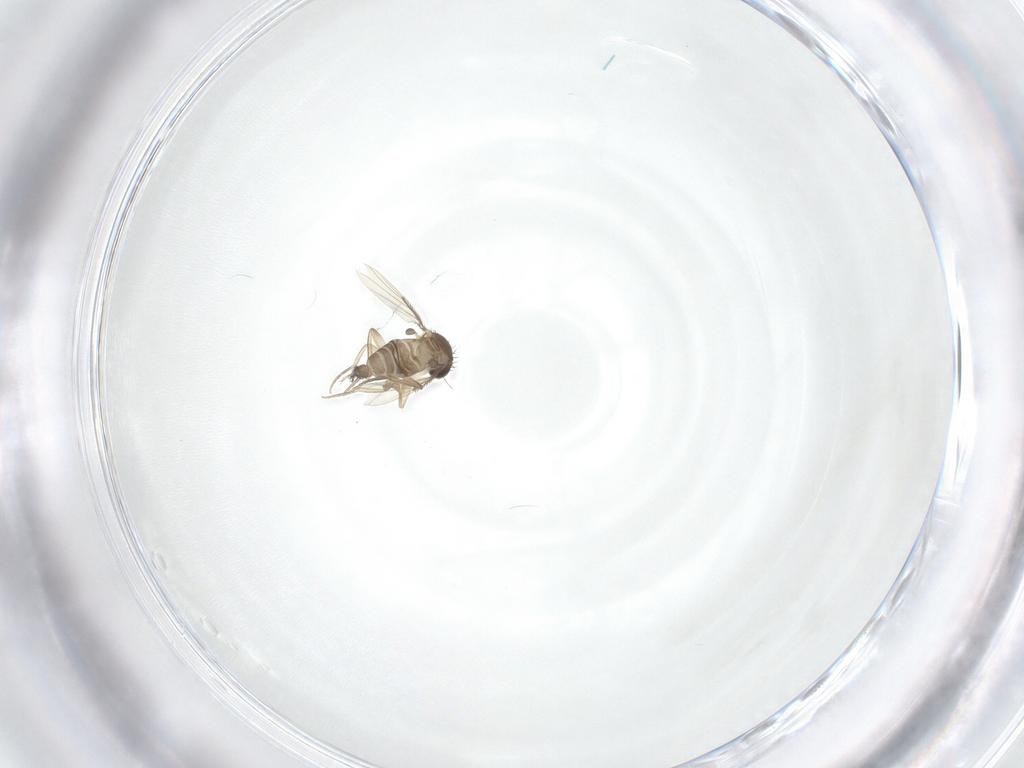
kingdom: Animalia
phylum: Arthropoda
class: Insecta
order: Diptera
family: Phoridae
